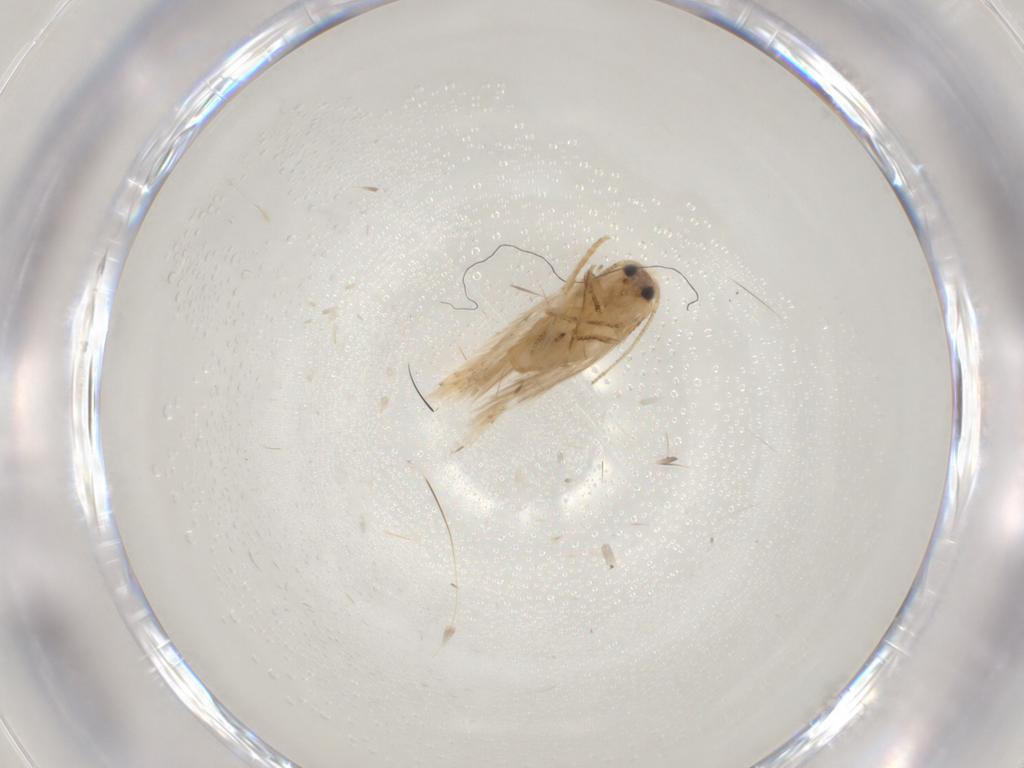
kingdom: Animalia
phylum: Arthropoda
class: Insecta
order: Lepidoptera
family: Nepticulidae
